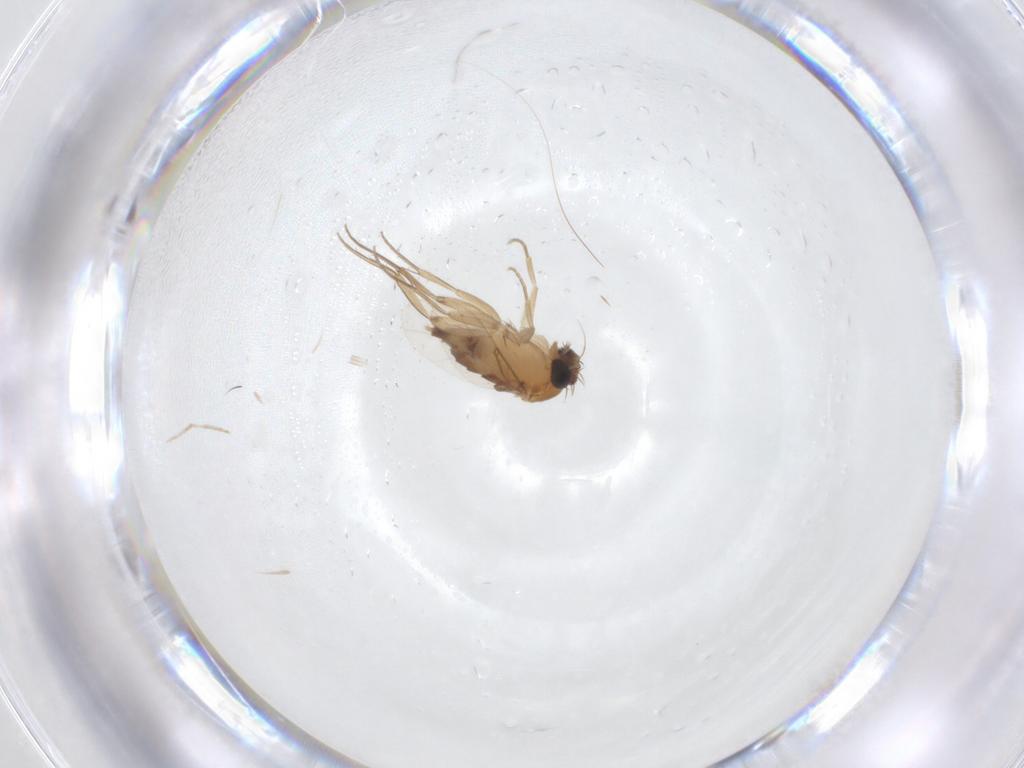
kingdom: Animalia
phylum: Arthropoda
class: Insecta
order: Diptera
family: Phoridae
